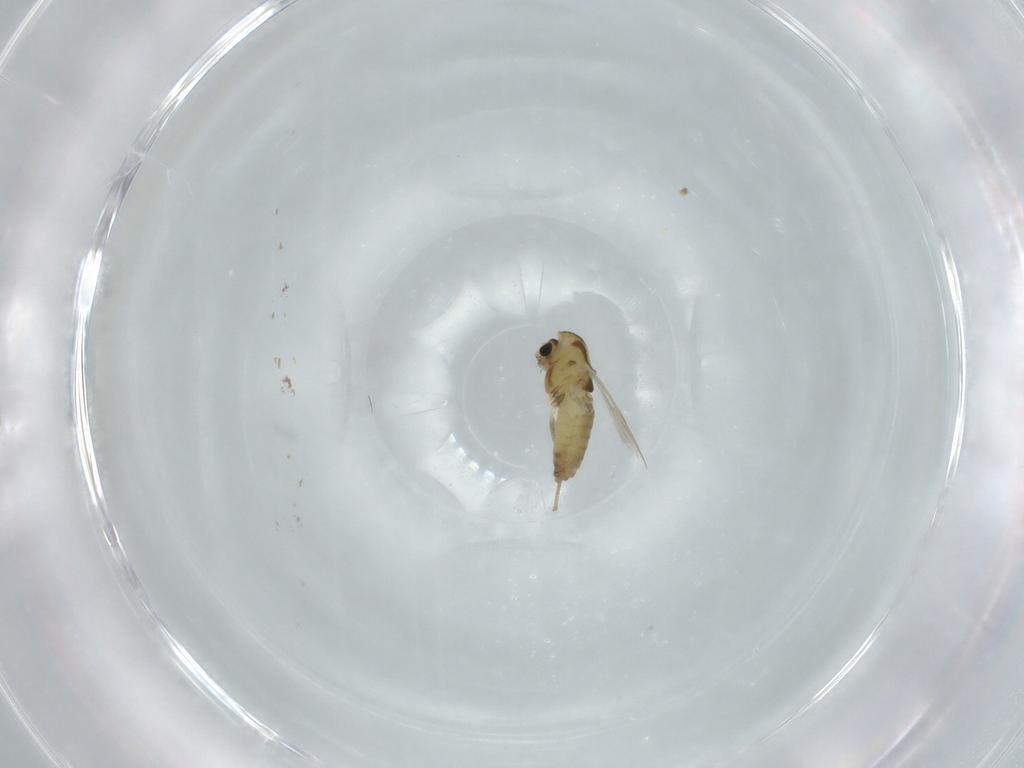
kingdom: Animalia
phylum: Arthropoda
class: Insecta
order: Diptera
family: Chironomidae
